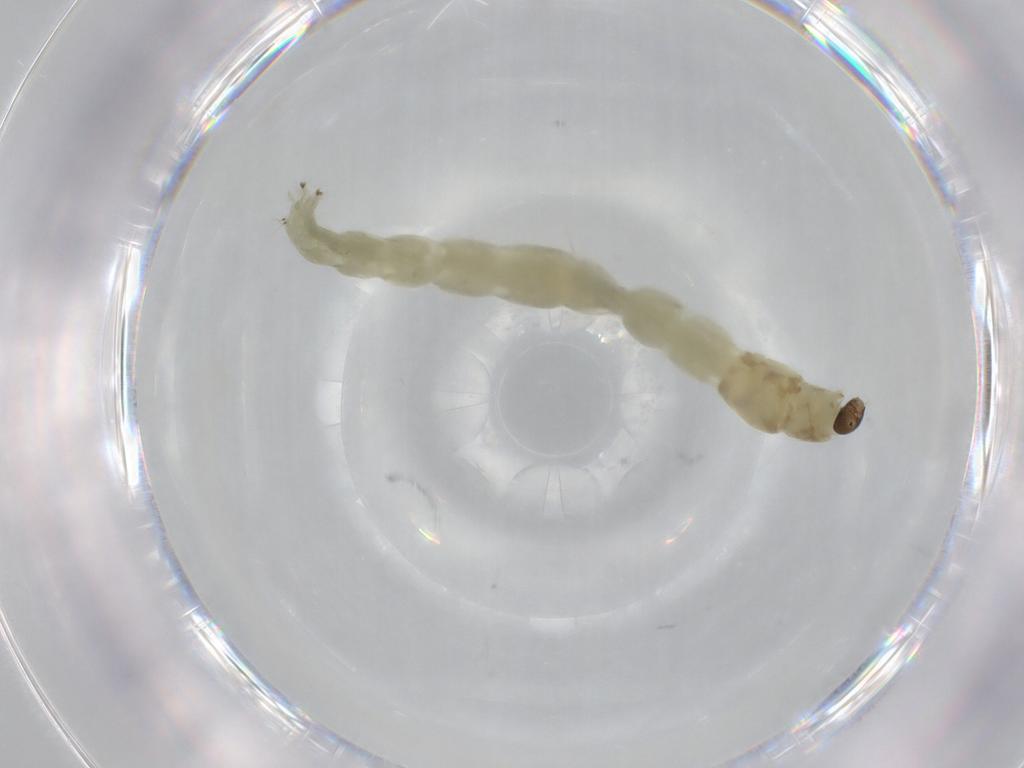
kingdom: Animalia
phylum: Arthropoda
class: Insecta
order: Diptera
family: Chironomidae
